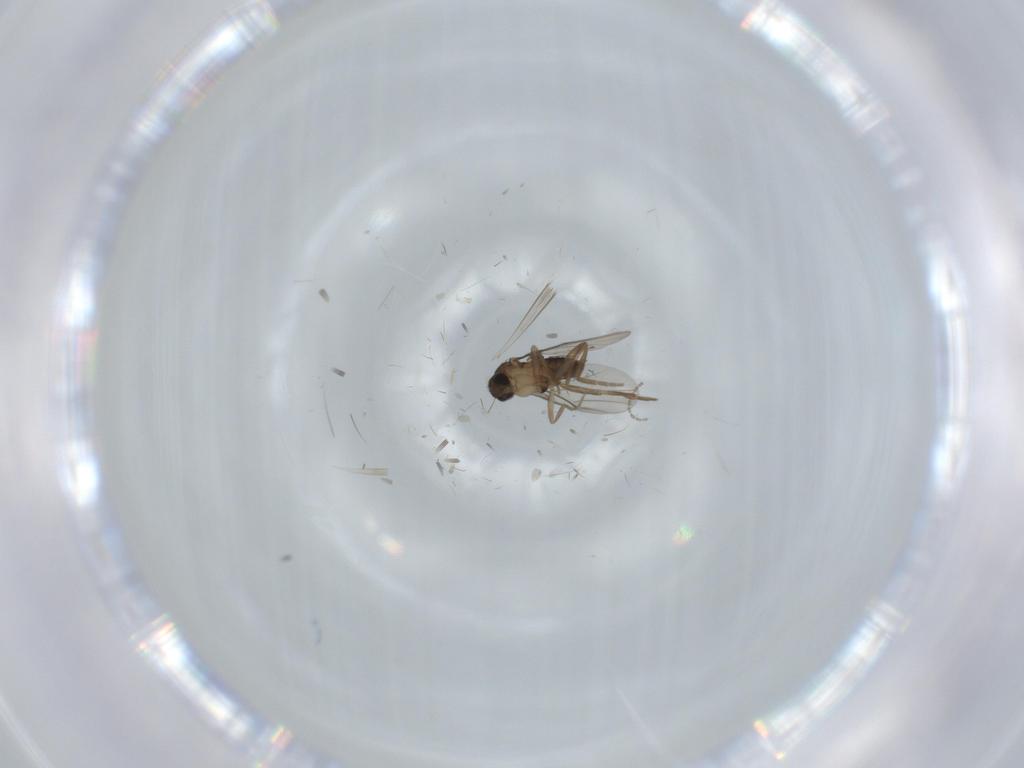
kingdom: Animalia
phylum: Arthropoda
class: Insecta
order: Diptera
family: Phoridae
